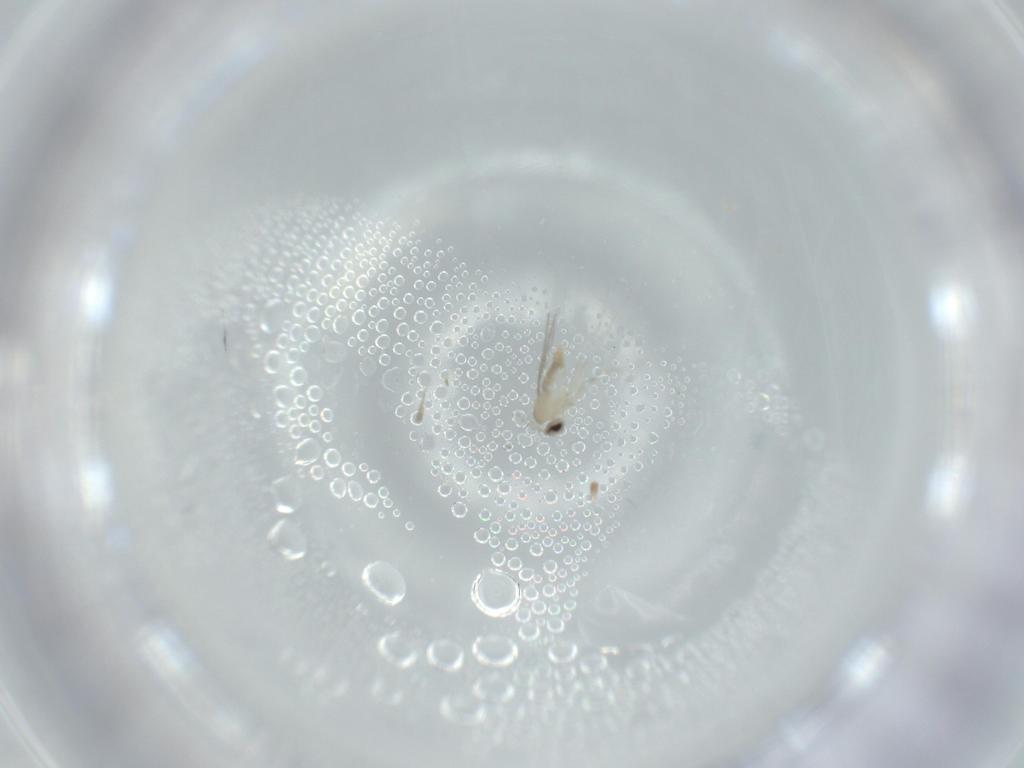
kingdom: Animalia
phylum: Arthropoda
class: Insecta
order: Diptera
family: Cecidomyiidae
